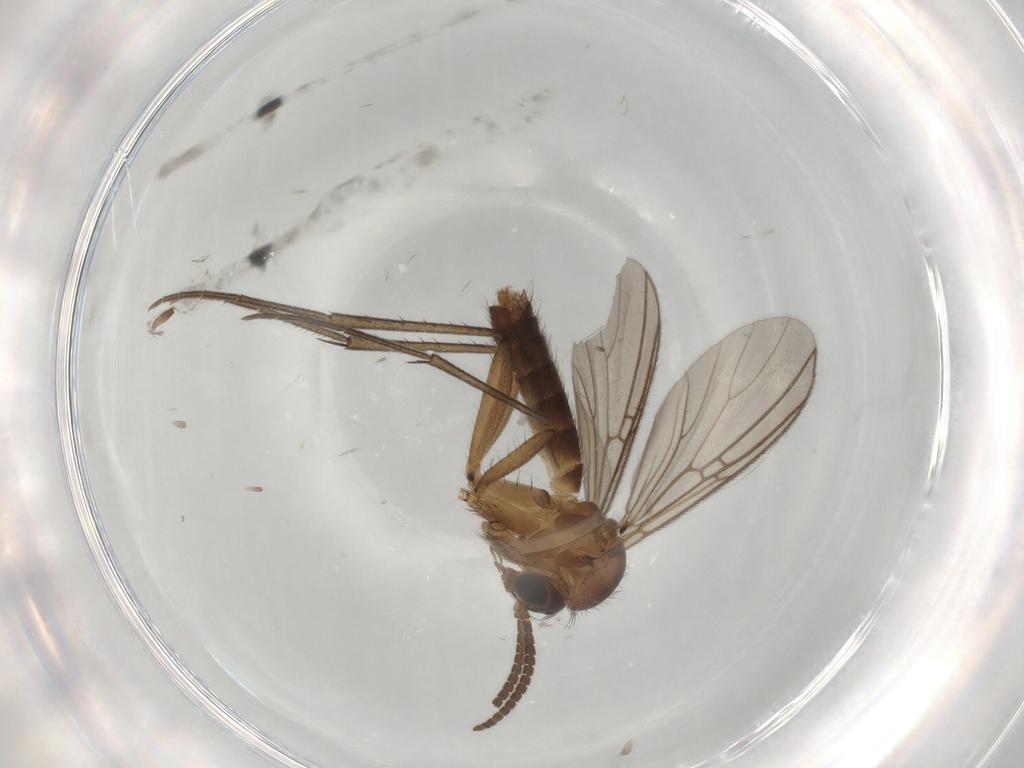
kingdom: Animalia
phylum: Arthropoda
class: Insecta
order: Diptera
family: Mycetophilidae
